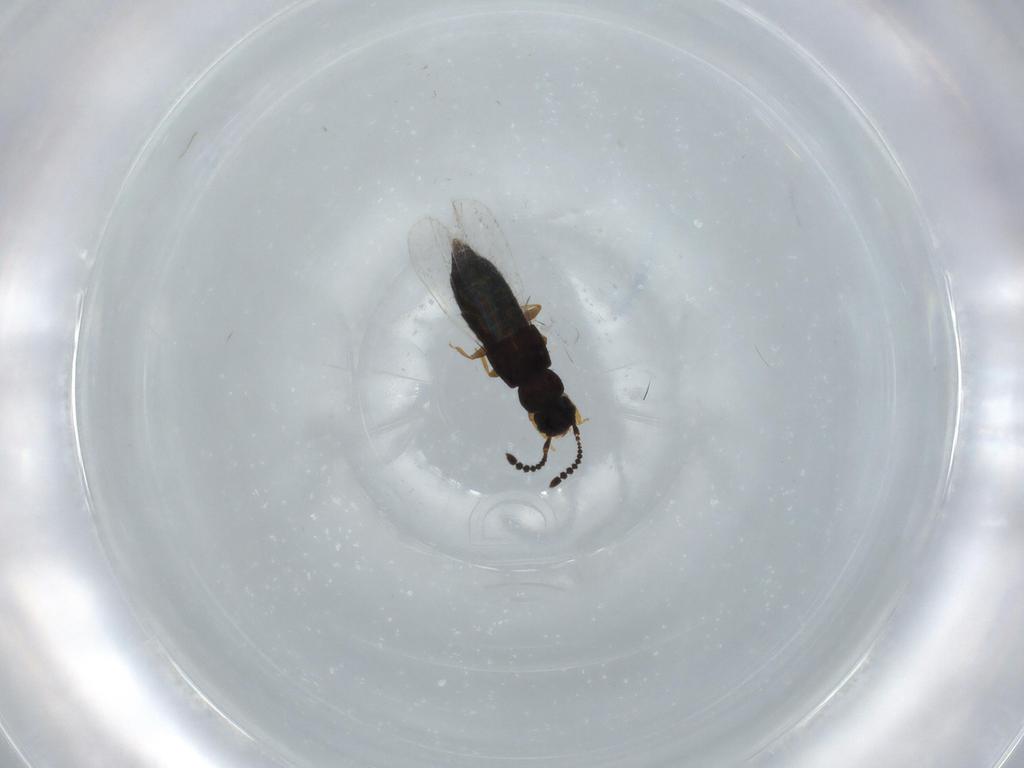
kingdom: Animalia
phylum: Arthropoda
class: Insecta
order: Coleoptera
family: Staphylinidae
